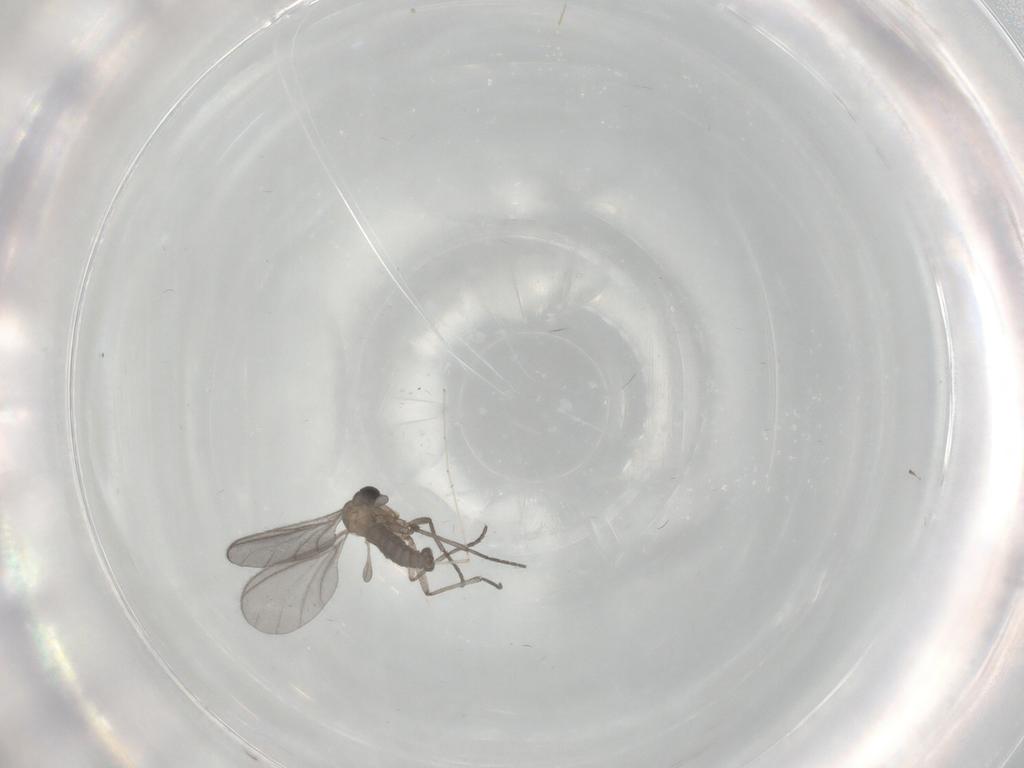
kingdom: Animalia
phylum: Arthropoda
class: Insecta
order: Diptera
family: Sciaridae
